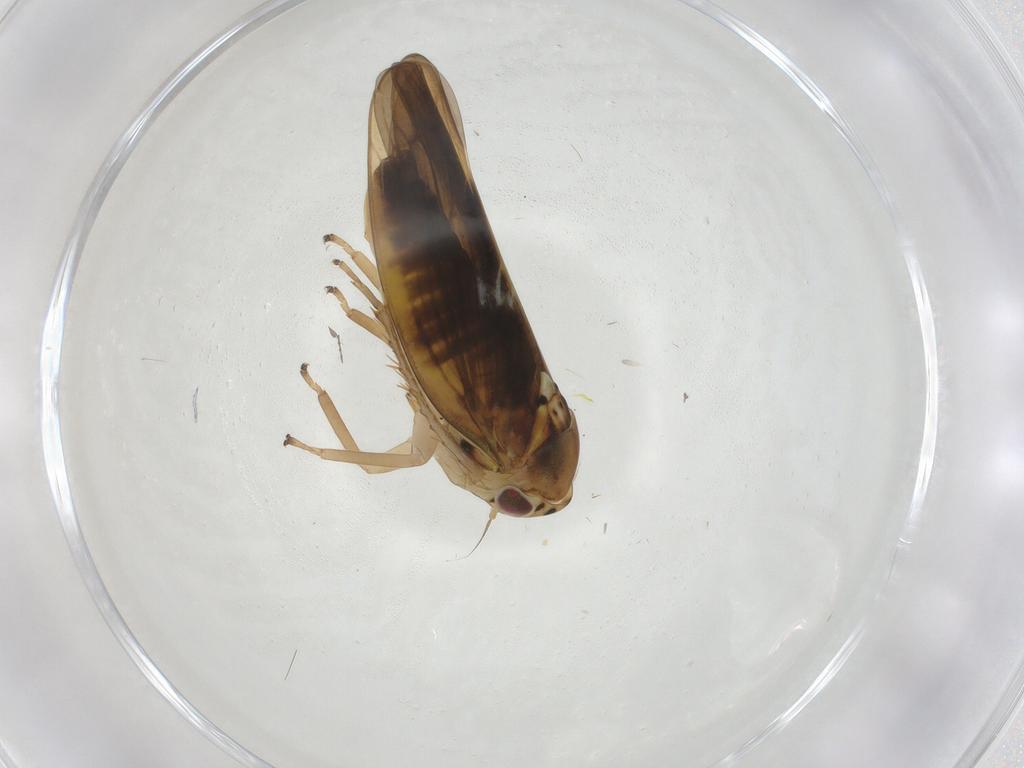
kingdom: Animalia
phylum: Arthropoda
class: Insecta
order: Hemiptera
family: Cicadellidae
